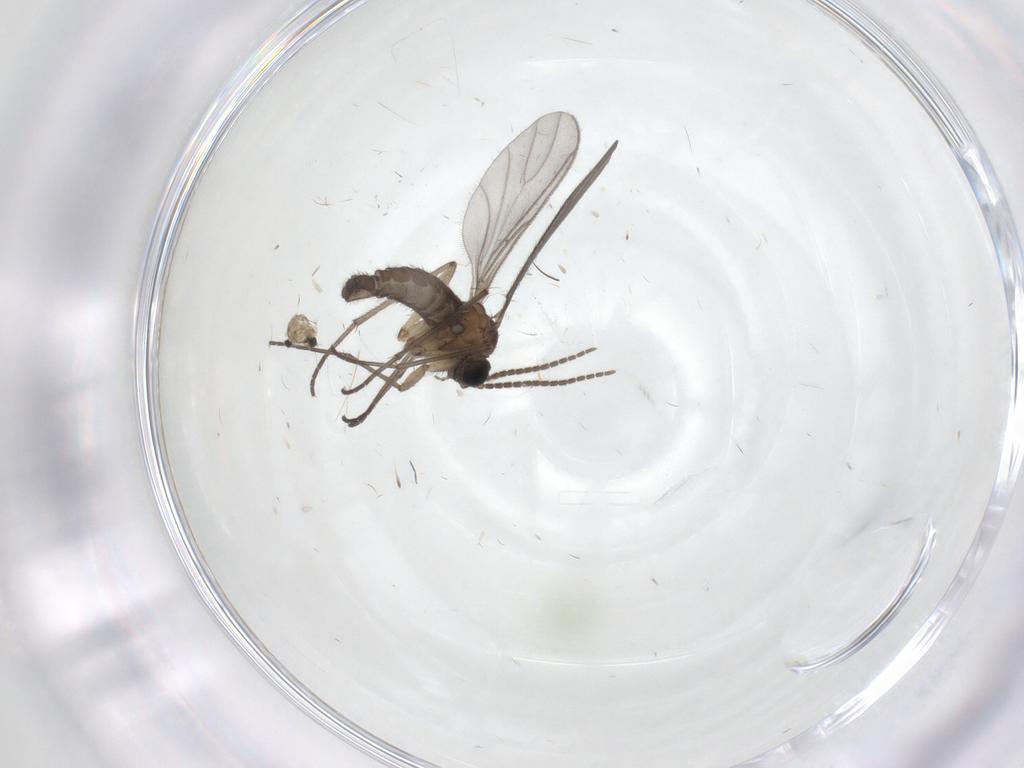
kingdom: Animalia
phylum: Arthropoda
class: Insecta
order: Diptera
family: Sciaridae
